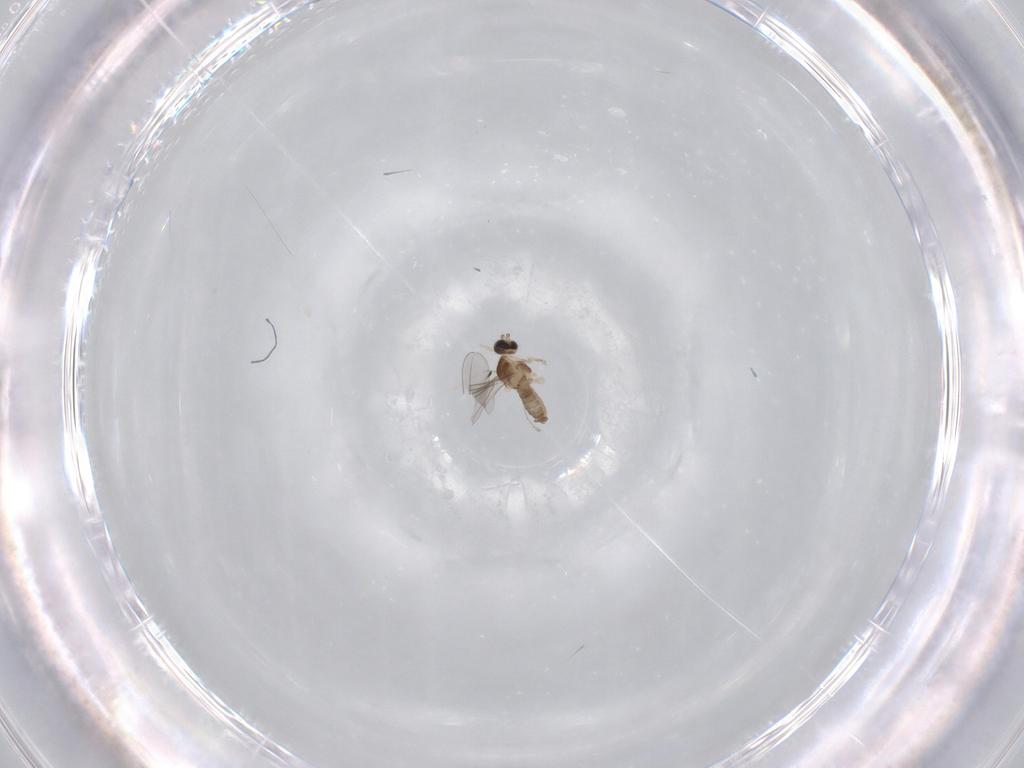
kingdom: Animalia
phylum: Arthropoda
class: Insecta
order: Diptera
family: Cecidomyiidae
